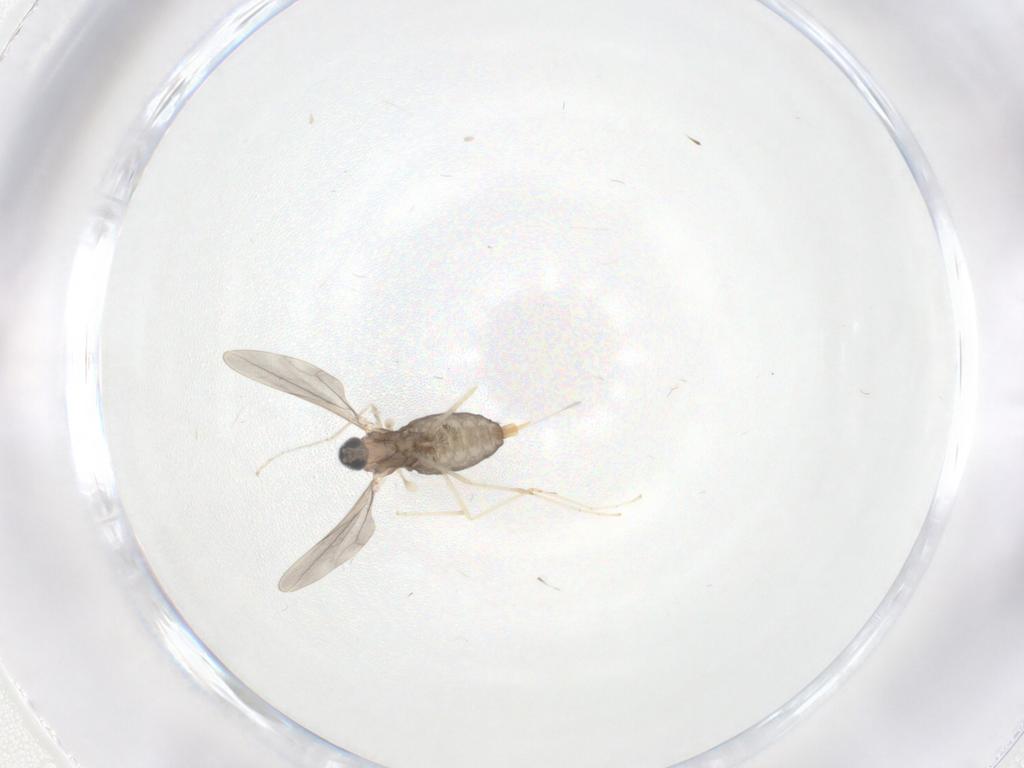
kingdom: Animalia
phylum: Arthropoda
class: Insecta
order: Diptera
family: Cecidomyiidae
